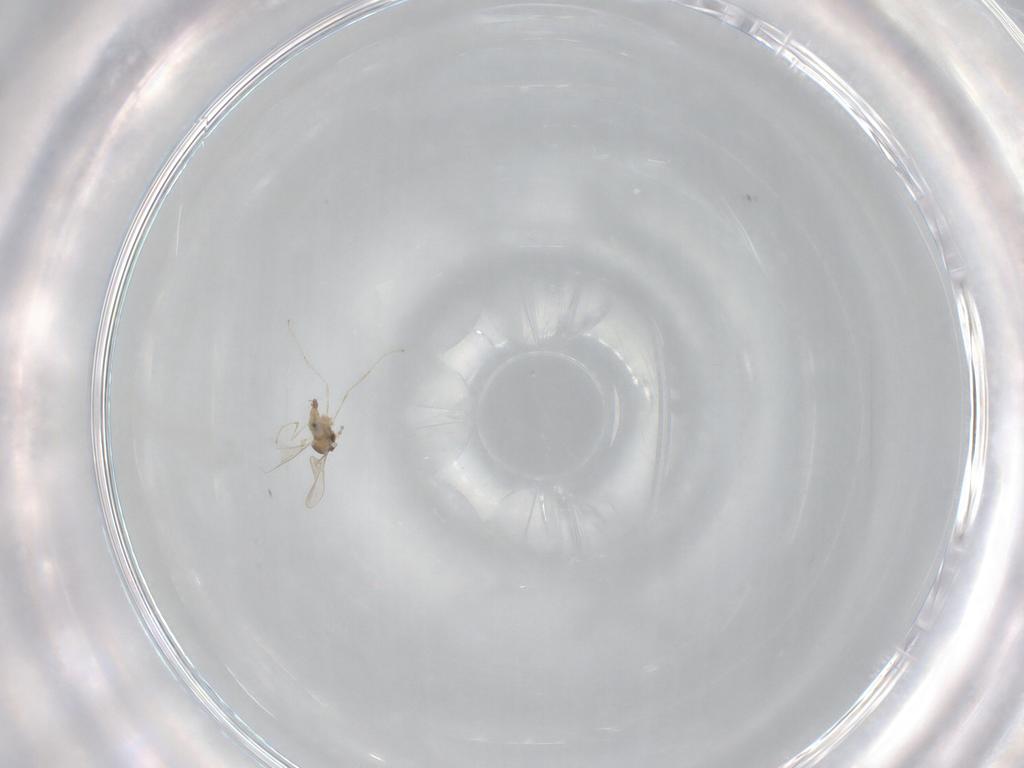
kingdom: Animalia
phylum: Arthropoda
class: Insecta
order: Diptera
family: Cecidomyiidae
